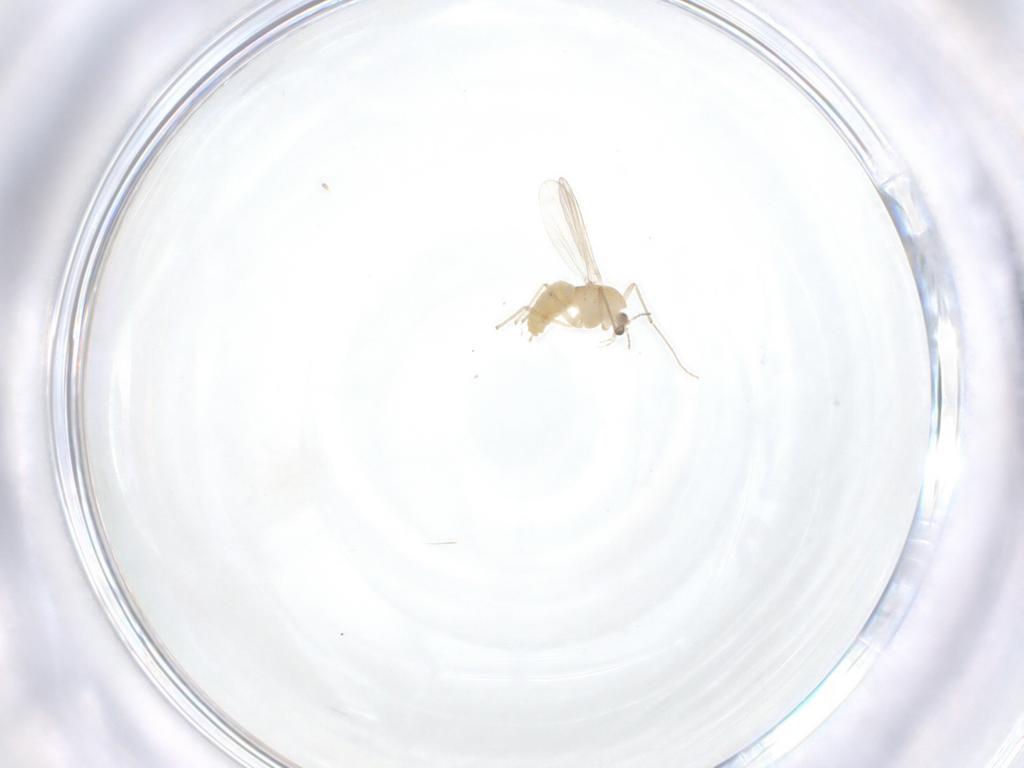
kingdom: Animalia
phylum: Arthropoda
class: Insecta
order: Diptera
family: Chironomidae
